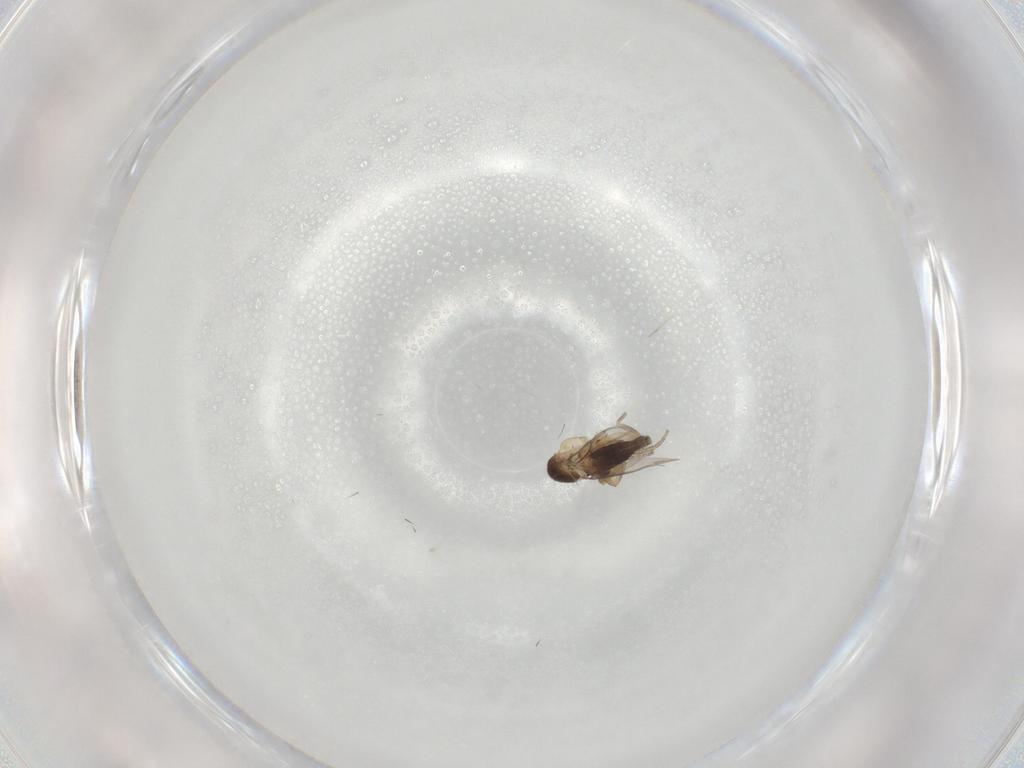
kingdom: Animalia
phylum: Arthropoda
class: Insecta
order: Diptera
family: Phoridae
